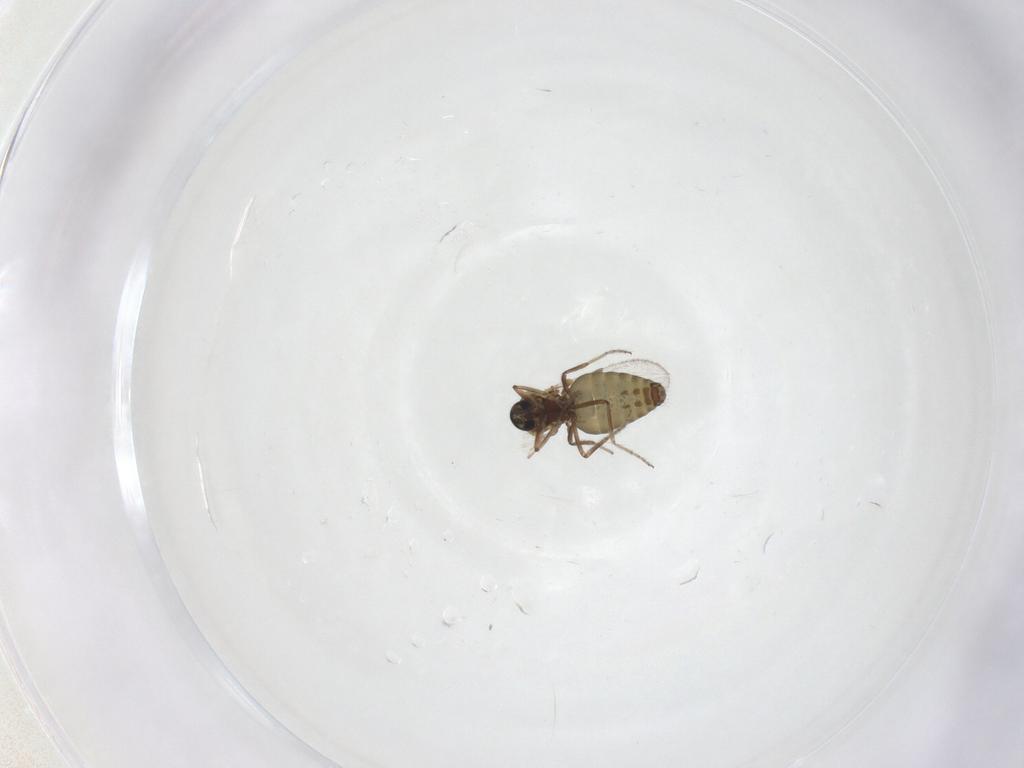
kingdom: Animalia
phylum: Arthropoda
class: Insecta
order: Diptera
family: Ceratopogonidae
